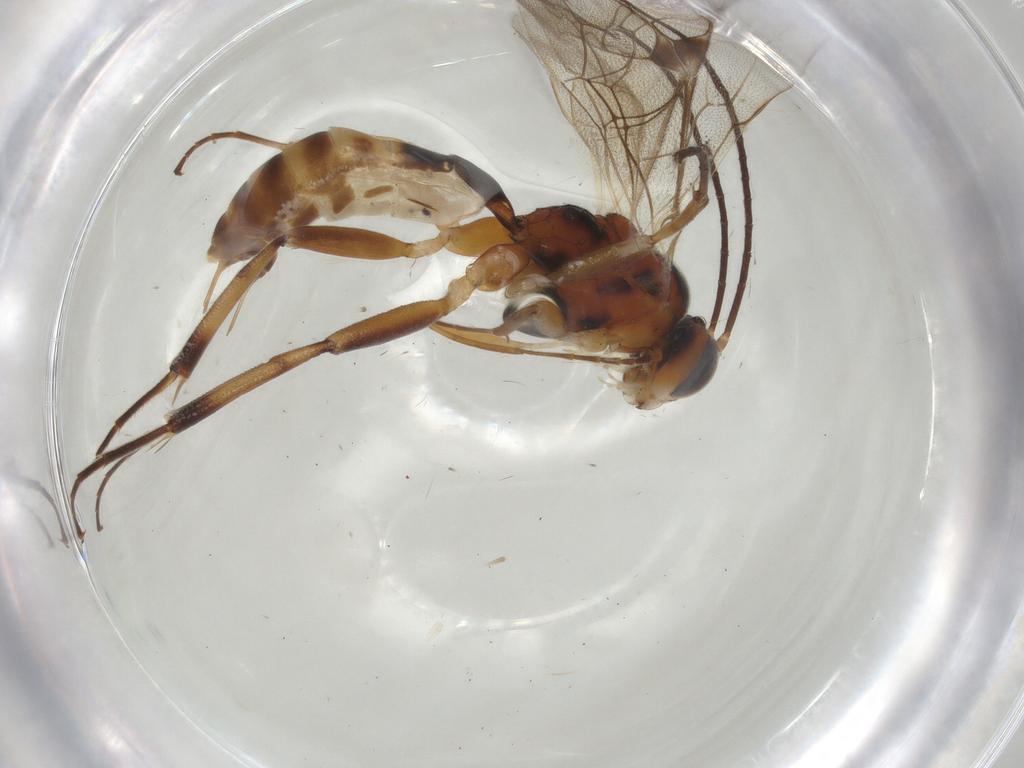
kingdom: Animalia
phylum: Arthropoda
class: Insecta
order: Hymenoptera
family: Ichneumonidae
